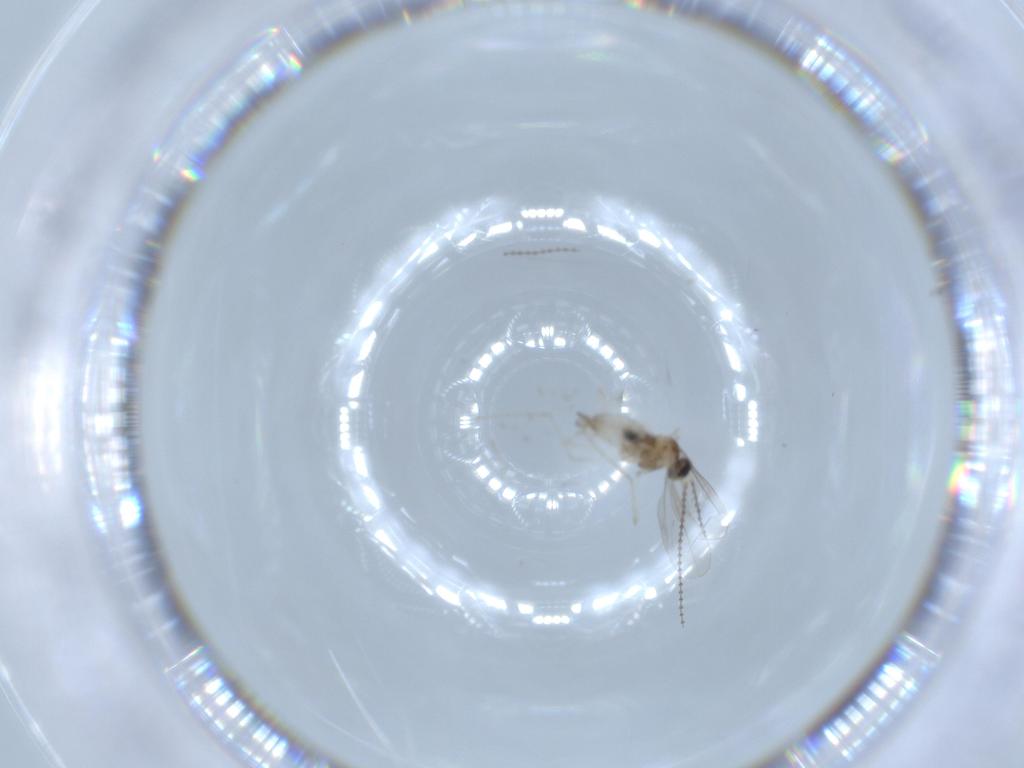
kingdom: Animalia
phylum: Arthropoda
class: Insecta
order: Diptera
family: Cecidomyiidae
